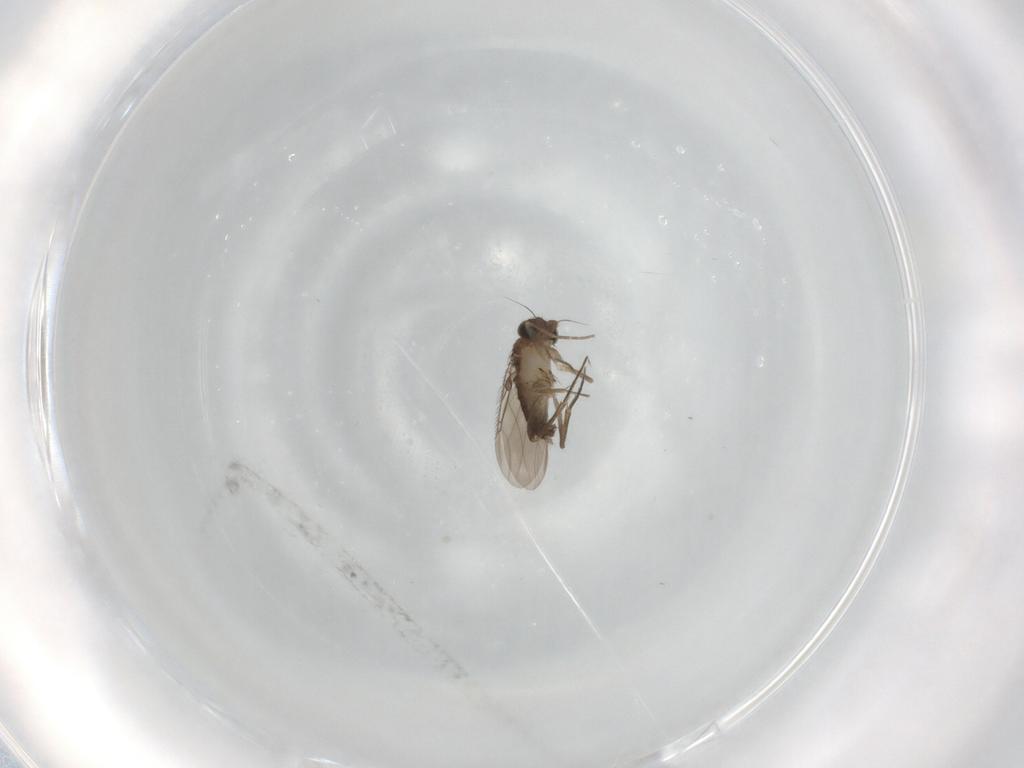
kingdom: Animalia
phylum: Arthropoda
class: Insecta
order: Diptera
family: Phoridae
